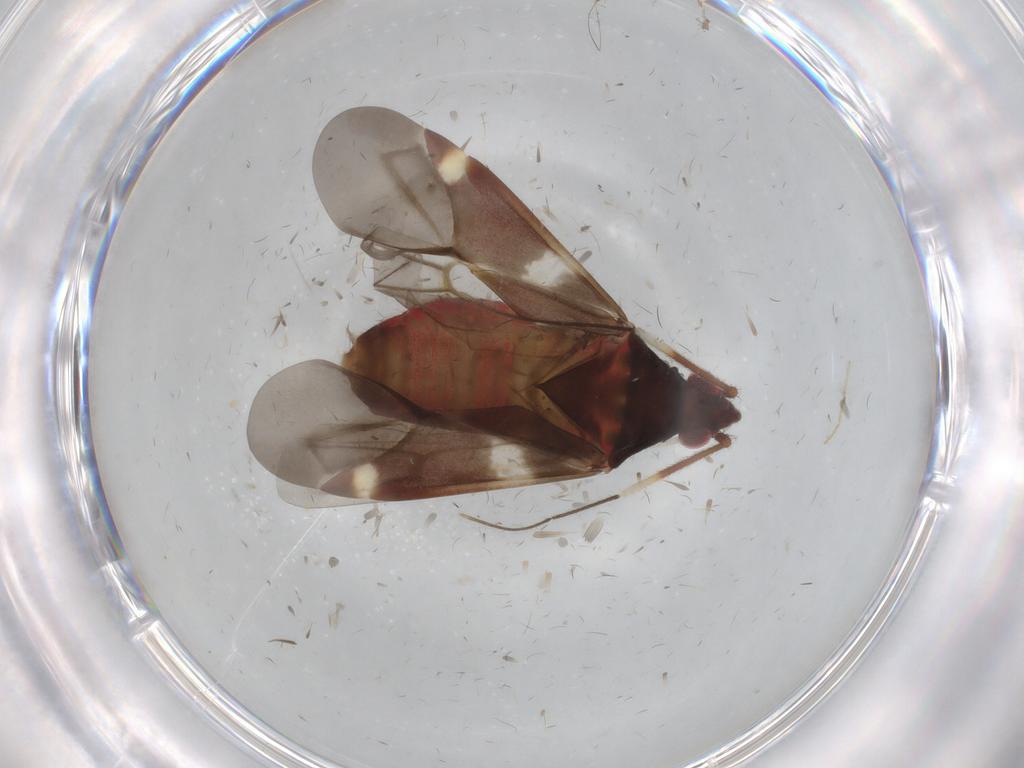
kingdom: Animalia
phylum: Arthropoda
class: Insecta
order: Hemiptera
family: Miridae
